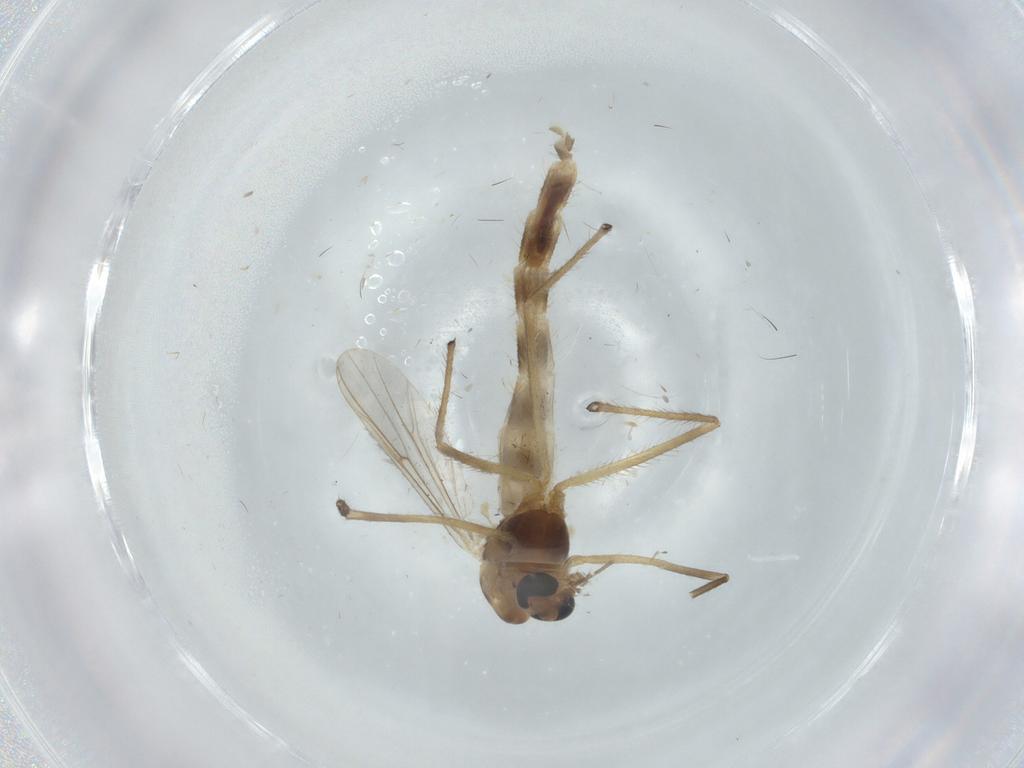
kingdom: Animalia
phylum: Arthropoda
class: Insecta
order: Diptera
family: Chironomidae
